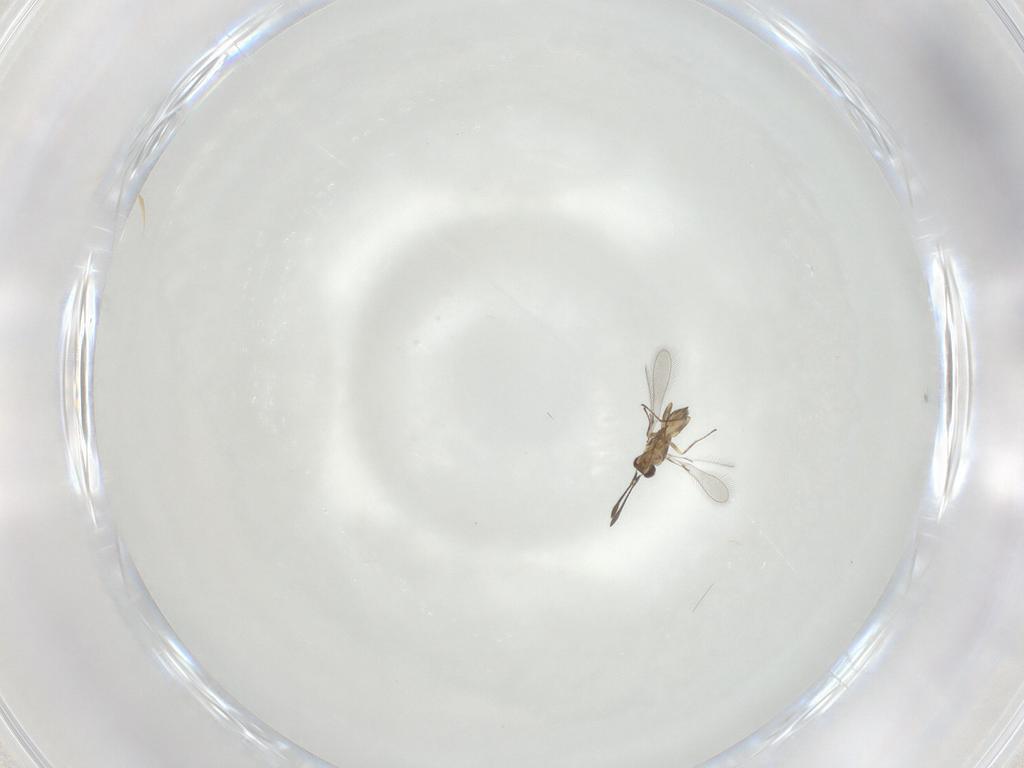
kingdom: Animalia
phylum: Arthropoda
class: Insecta
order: Hymenoptera
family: Mymaridae
